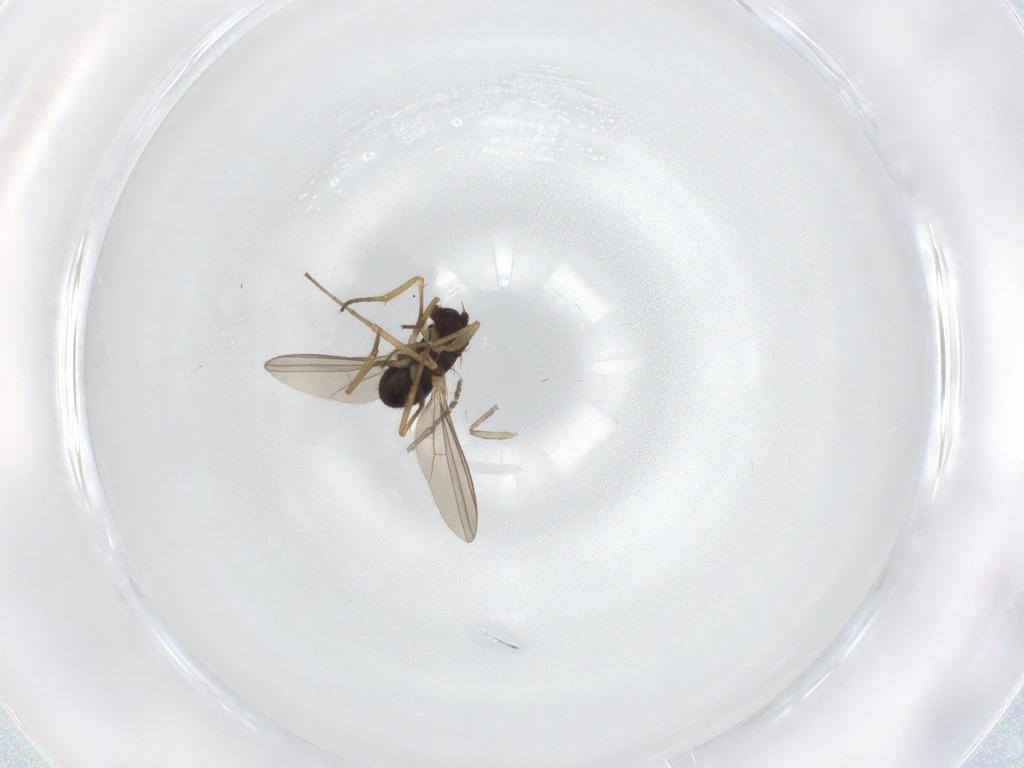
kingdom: Animalia
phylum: Arthropoda
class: Insecta
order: Diptera
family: Dolichopodidae
